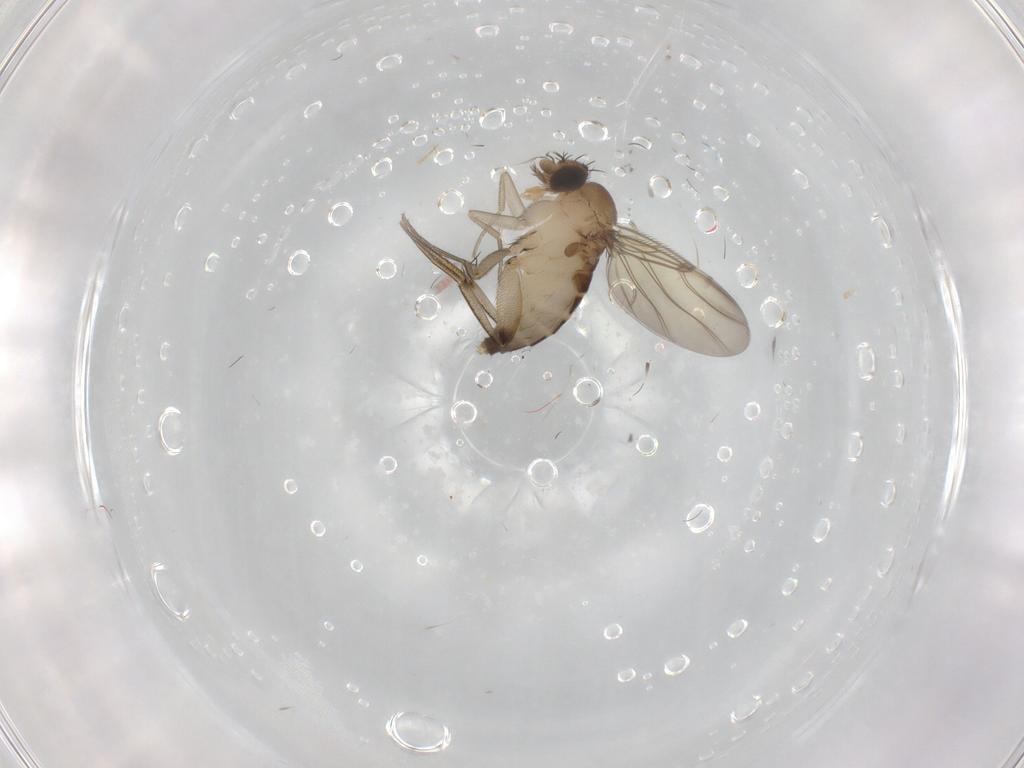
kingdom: Animalia
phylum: Arthropoda
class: Insecta
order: Diptera
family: Phoridae
